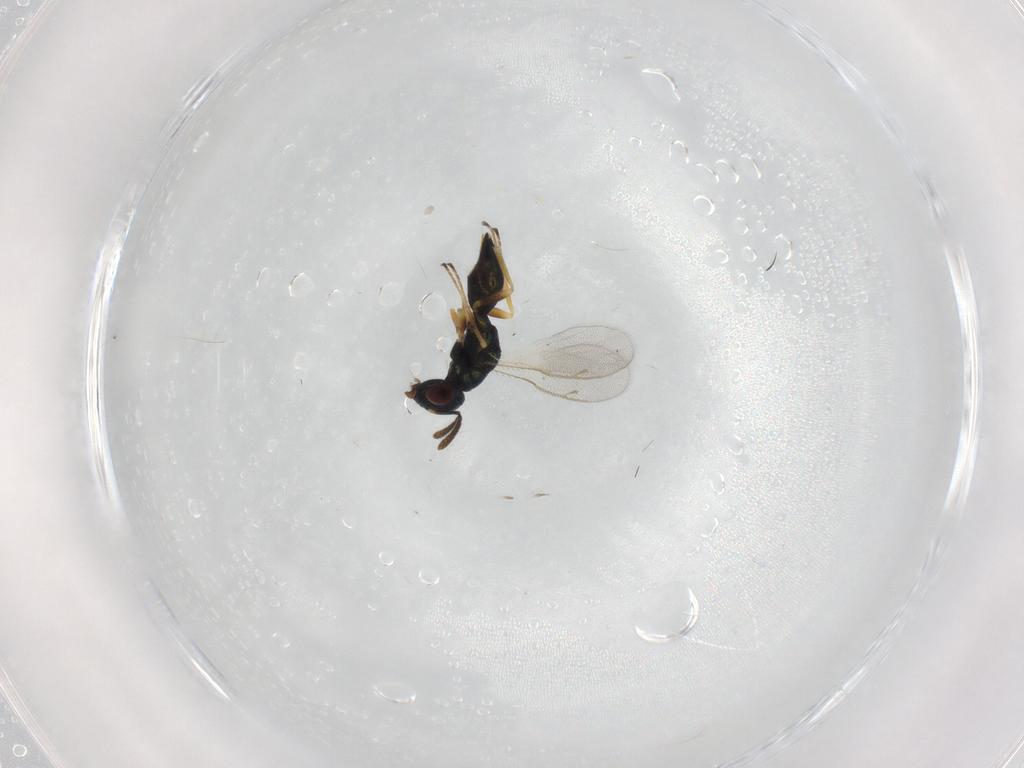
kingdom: Animalia
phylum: Arthropoda
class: Insecta
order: Hymenoptera
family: Pteromalidae
